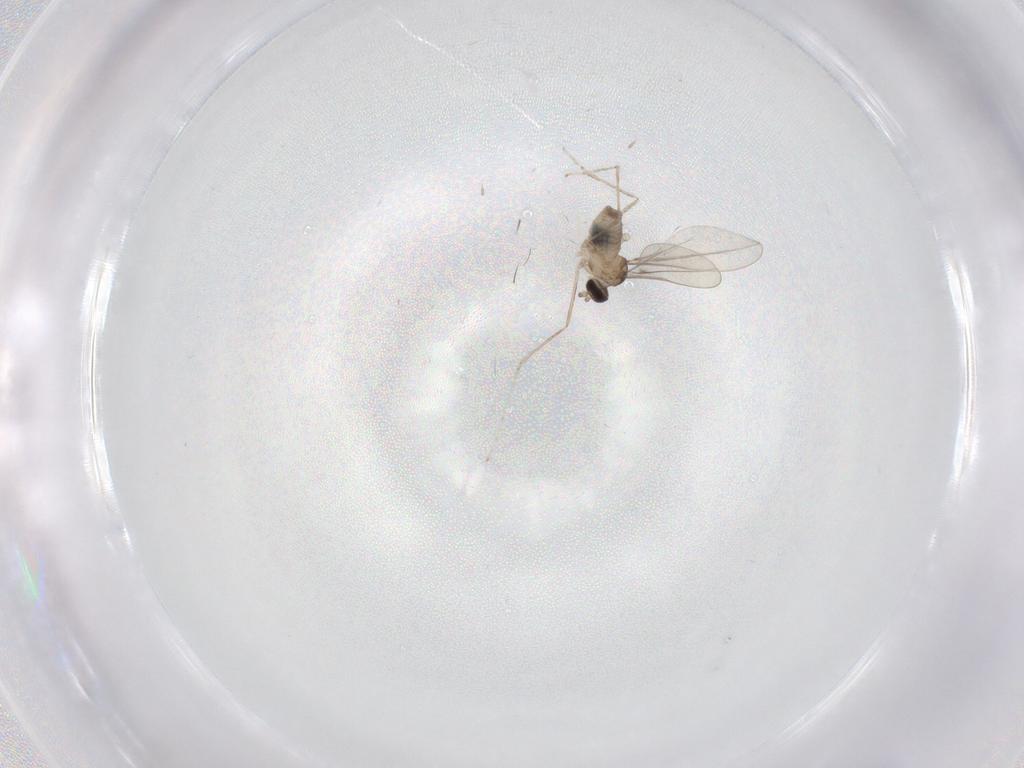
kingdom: Animalia
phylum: Arthropoda
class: Insecta
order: Diptera
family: Cecidomyiidae
